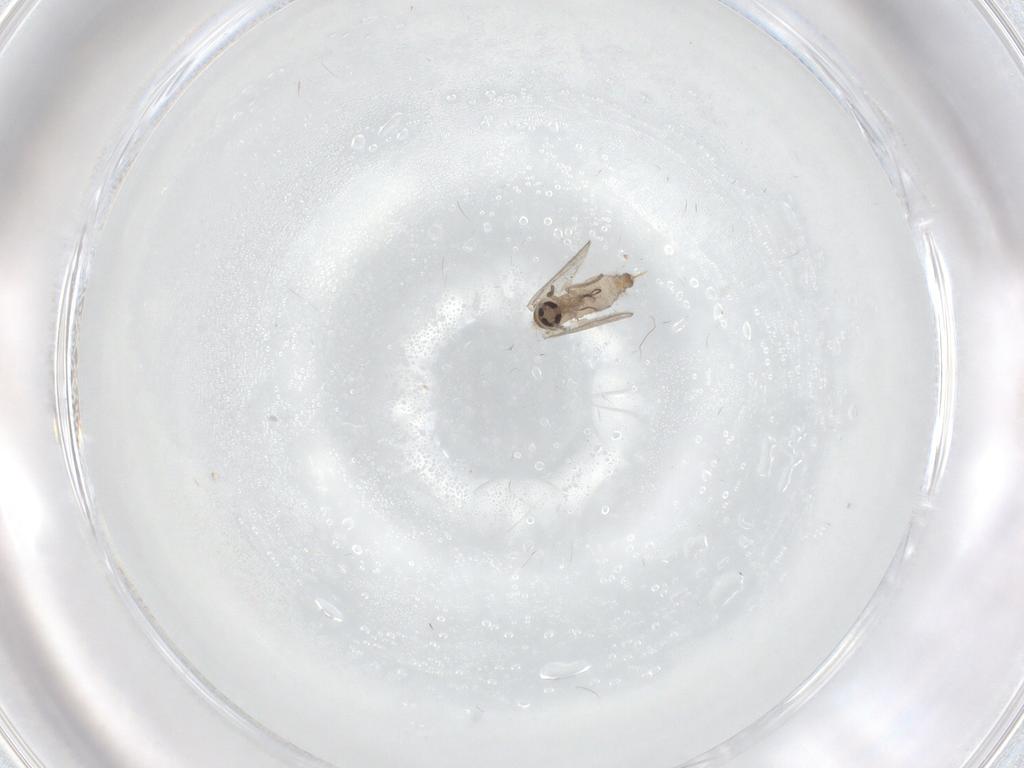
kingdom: Animalia
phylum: Arthropoda
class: Insecta
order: Diptera
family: Psychodidae
